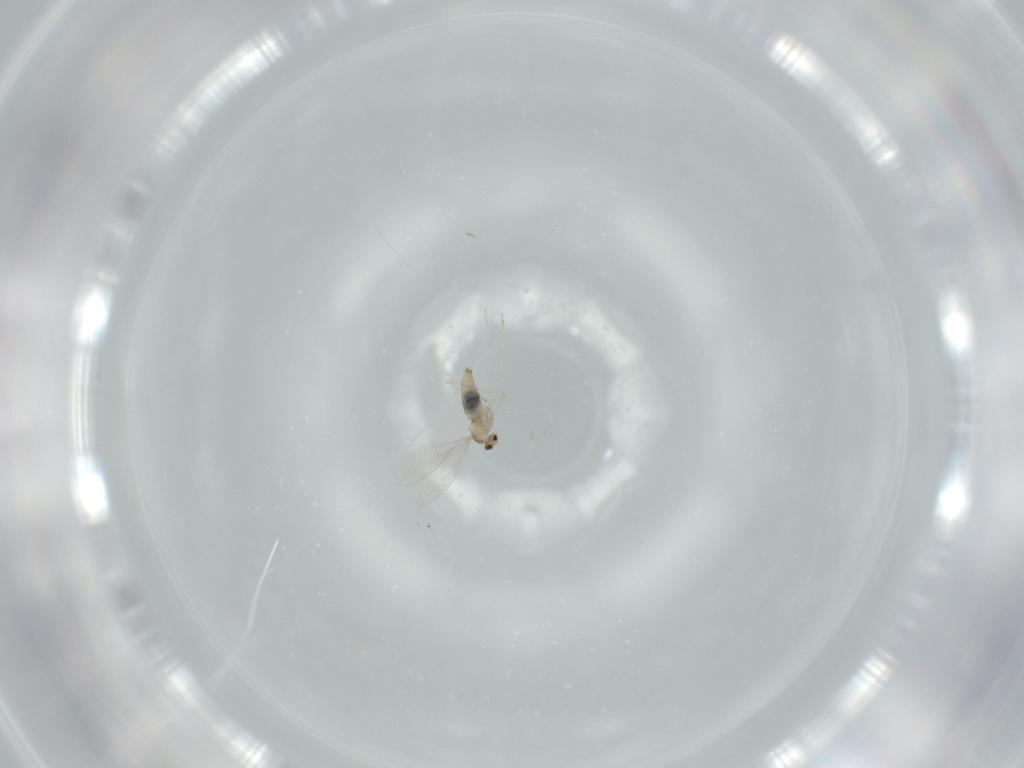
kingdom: Animalia
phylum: Arthropoda
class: Insecta
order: Diptera
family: Cecidomyiidae
